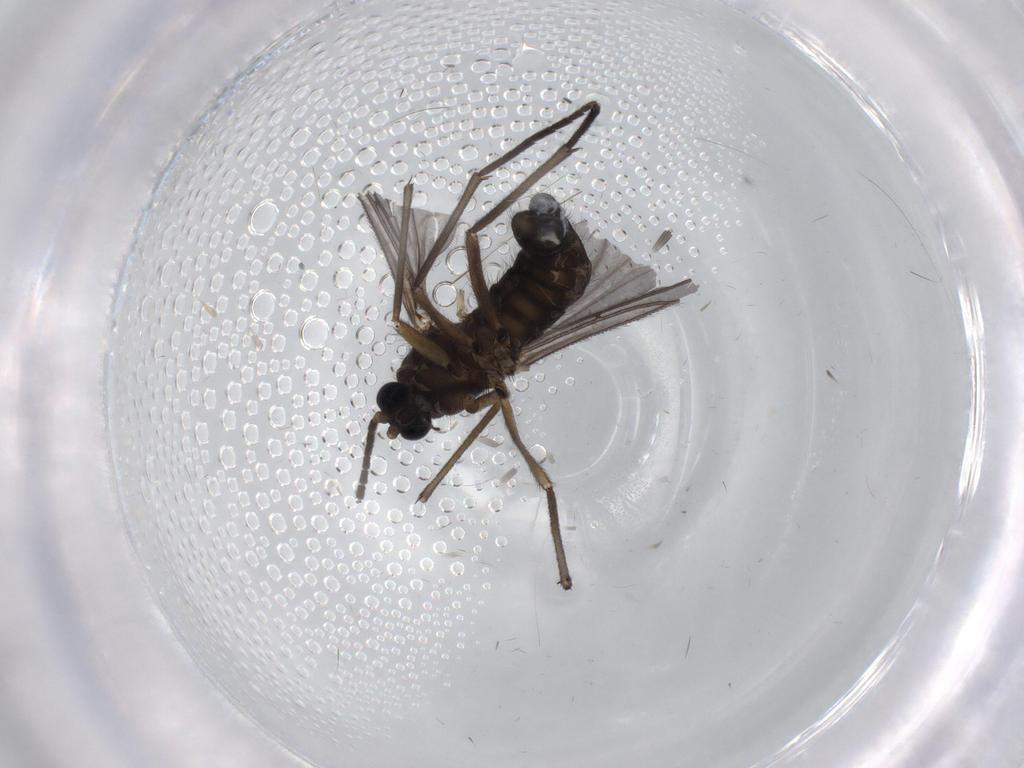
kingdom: Animalia
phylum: Arthropoda
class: Insecta
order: Diptera
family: Sciaridae
